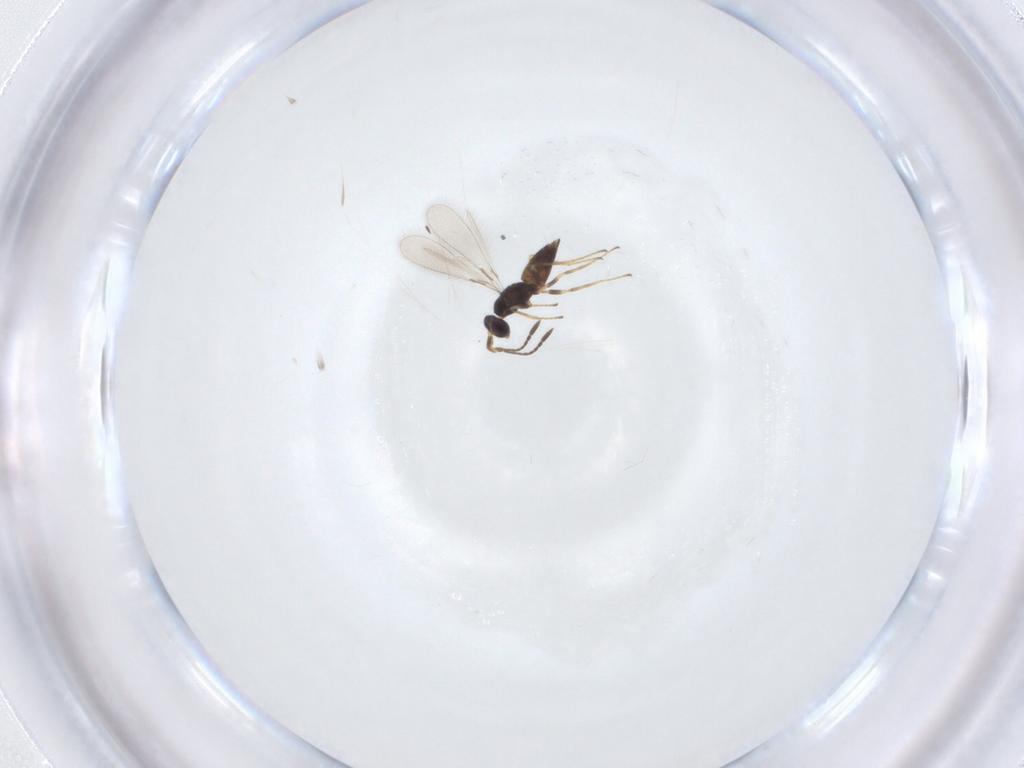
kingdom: Animalia
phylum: Arthropoda
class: Insecta
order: Hymenoptera
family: Mymaridae
